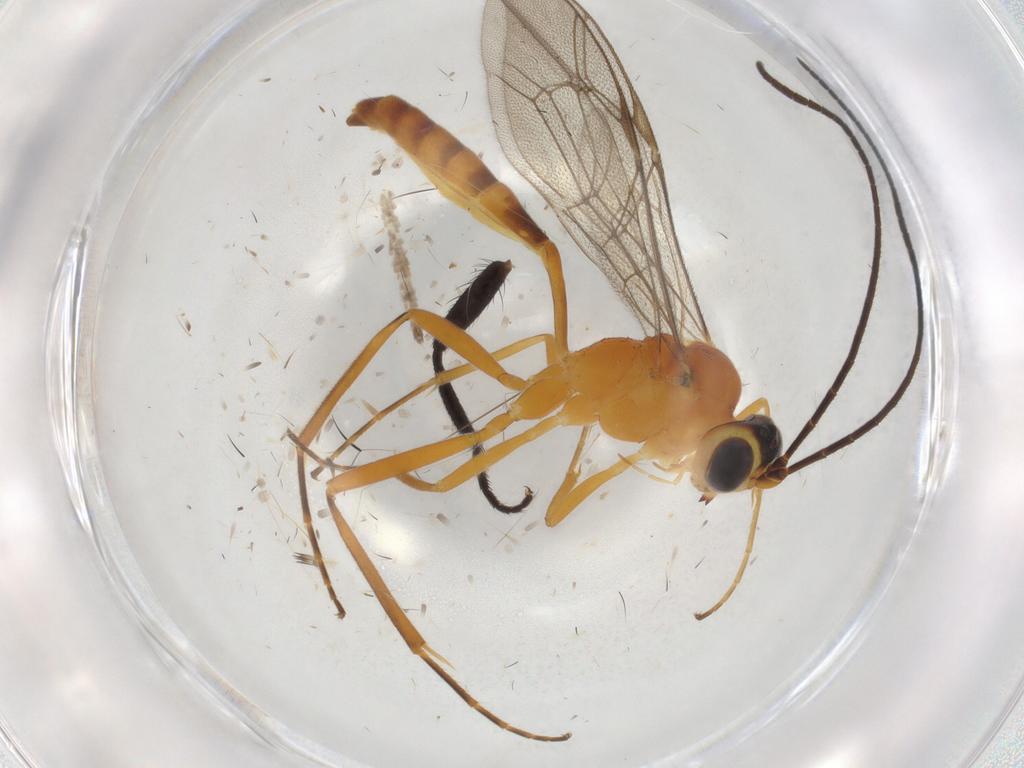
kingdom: Animalia
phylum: Arthropoda
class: Insecta
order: Hymenoptera
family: Ichneumonidae
